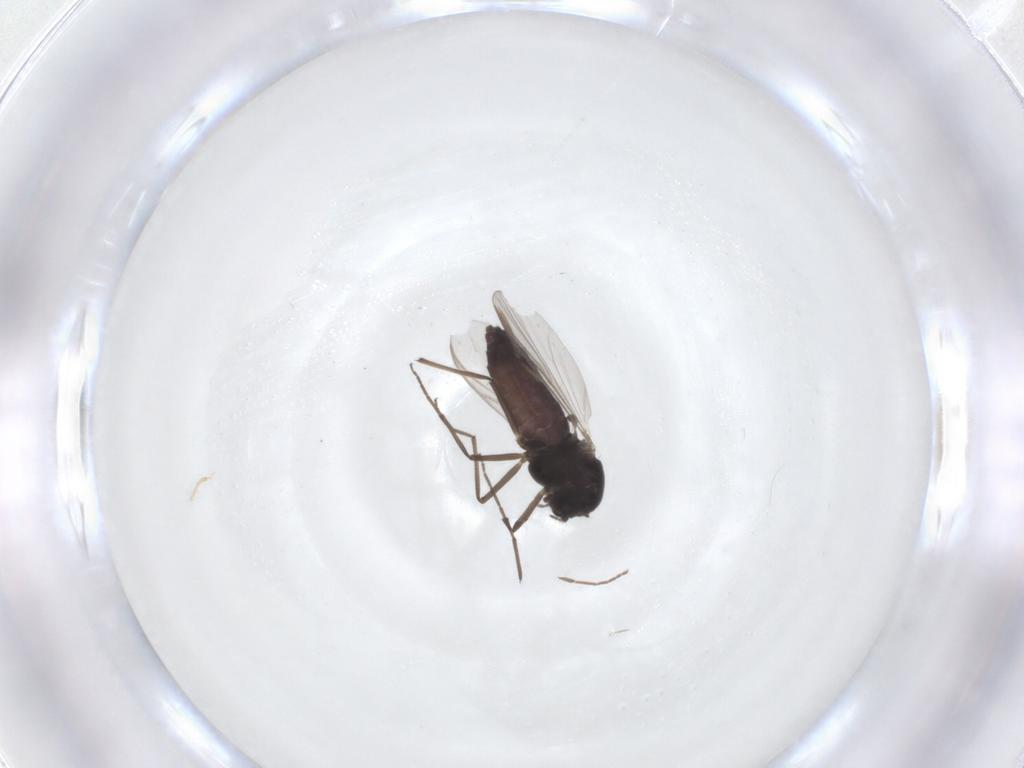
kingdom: Animalia
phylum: Arthropoda
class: Insecta
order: Diptera
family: Chironomidae
